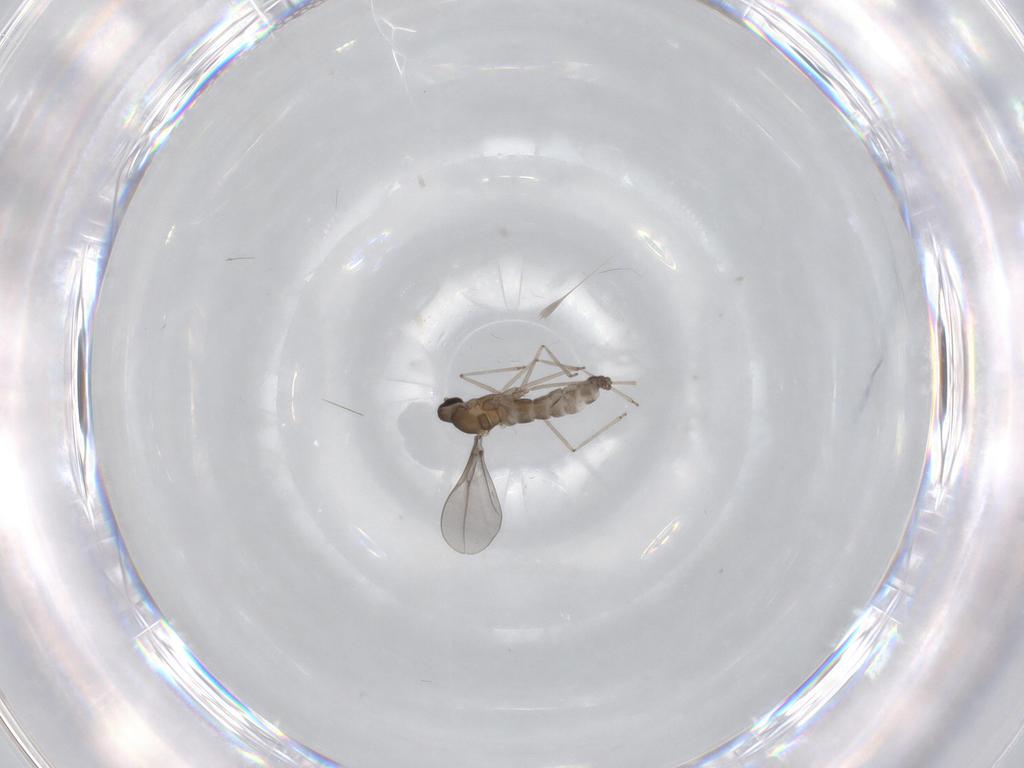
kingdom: Animalia
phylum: Arthropoda
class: Insecta
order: Diptera
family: Cecidomyiidae
